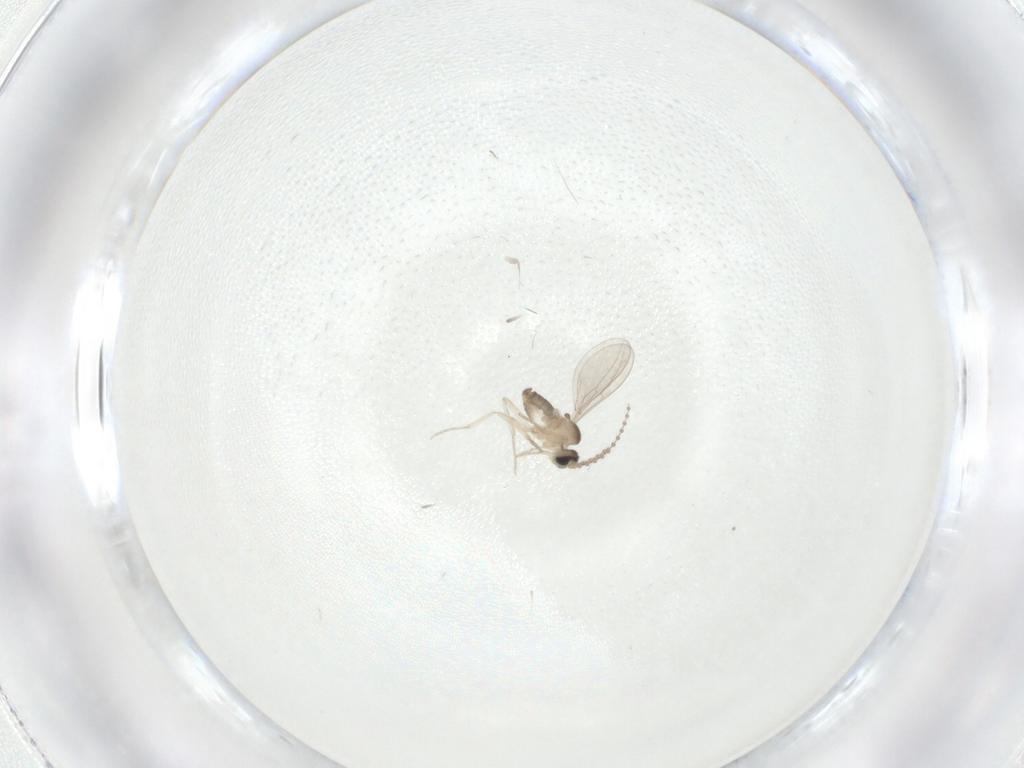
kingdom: Animalia
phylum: Arthropoda
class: Insecta
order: Diptera
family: Cecidomyiidae
